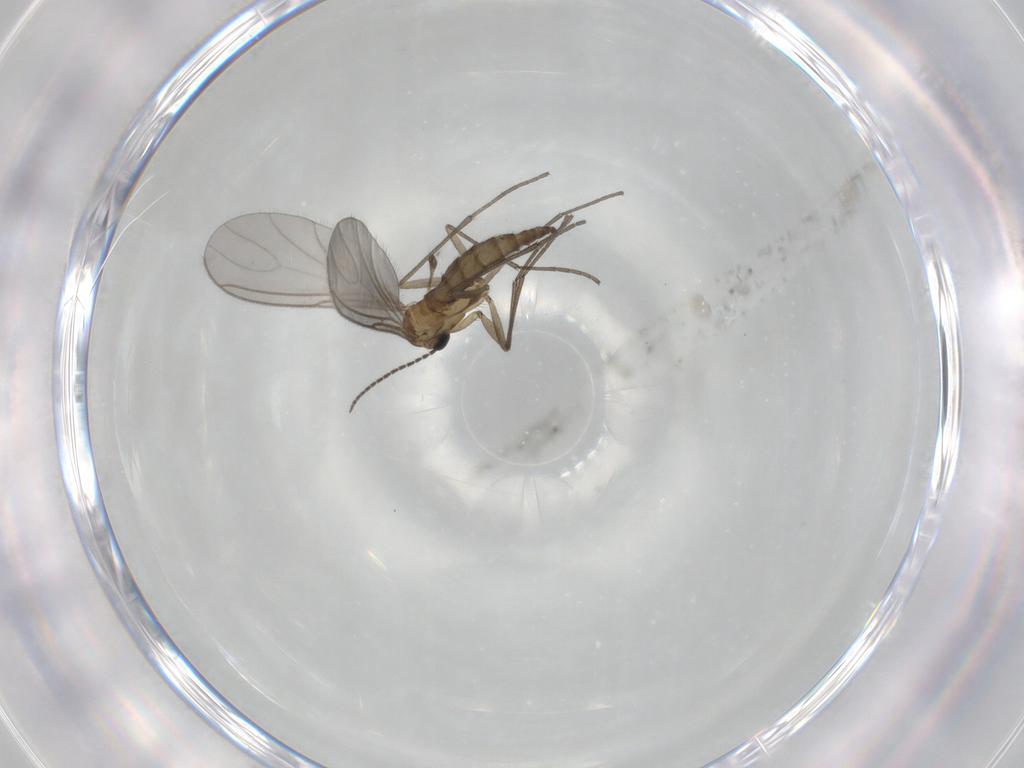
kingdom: Animalia
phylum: Arthropoda
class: Insecta
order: Diptera
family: Sciaridae
